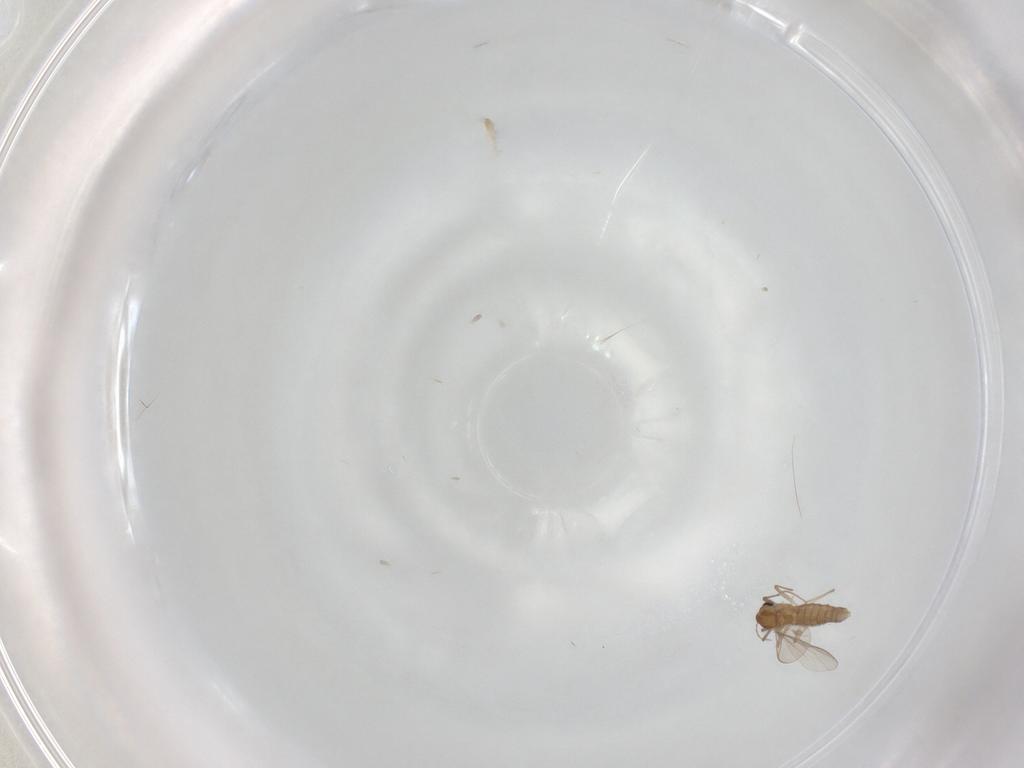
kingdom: Animalia
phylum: Arthropoda
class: Insecta
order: Diptera
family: Chironomidae
